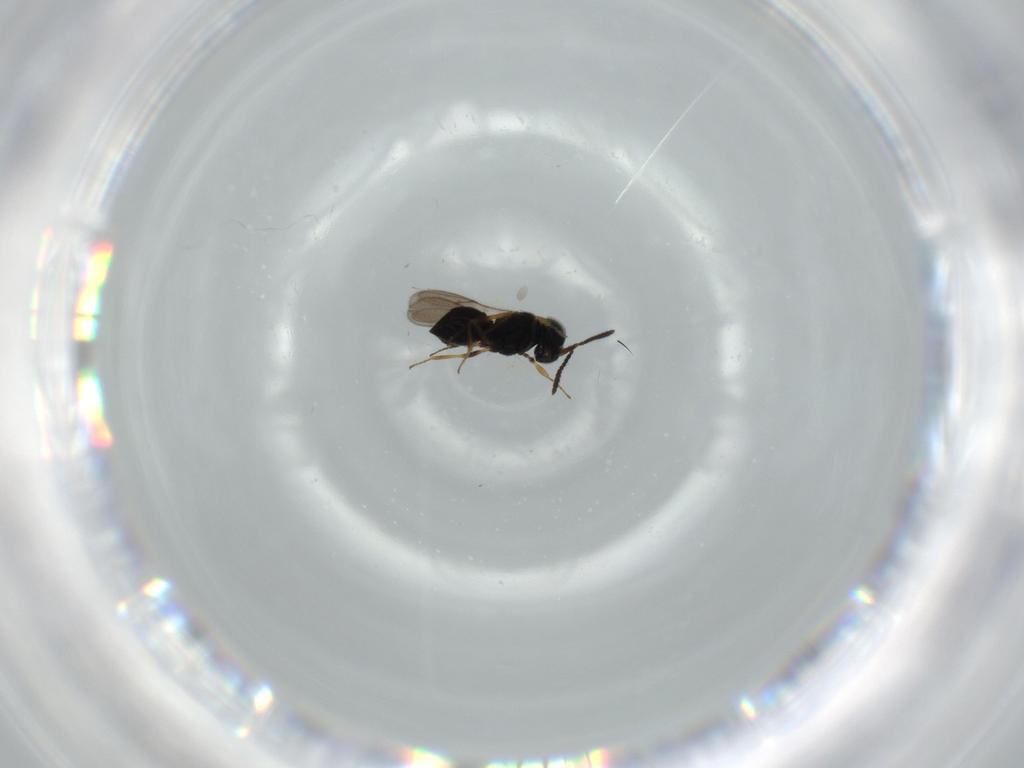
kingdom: Animalia
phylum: Arthropoda
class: Insecta
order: Hymenoptera
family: Scelionidae
